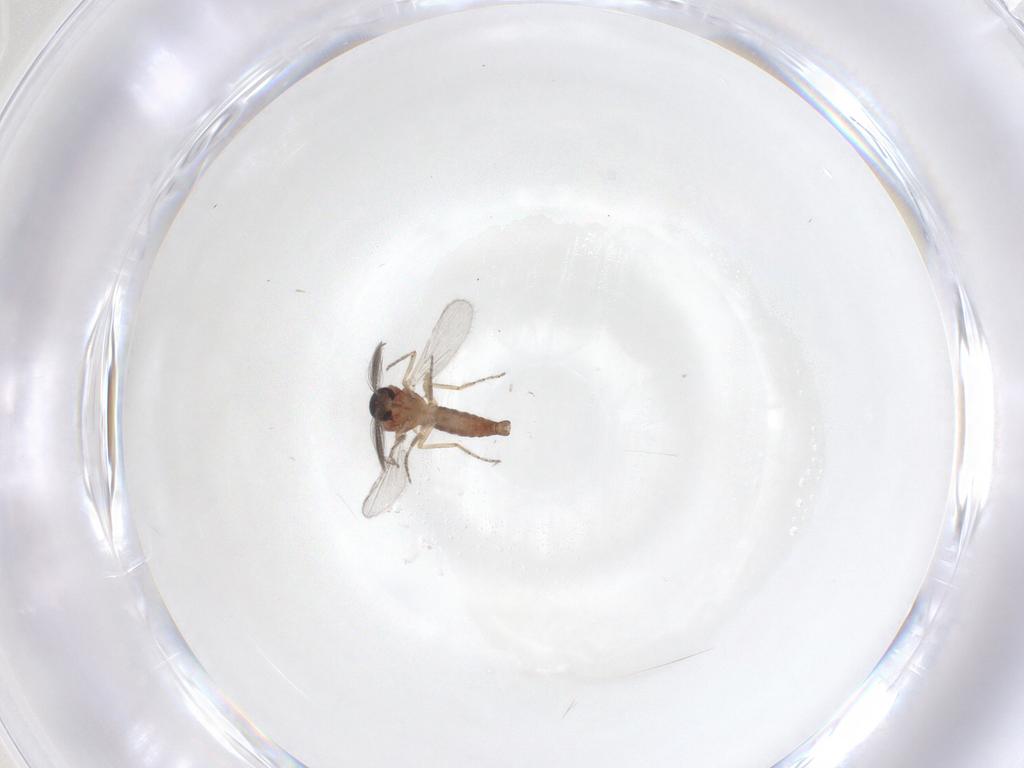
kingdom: Animalia
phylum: Arthropoda
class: Insecta
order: Diptera
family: Ceratopogonidae
